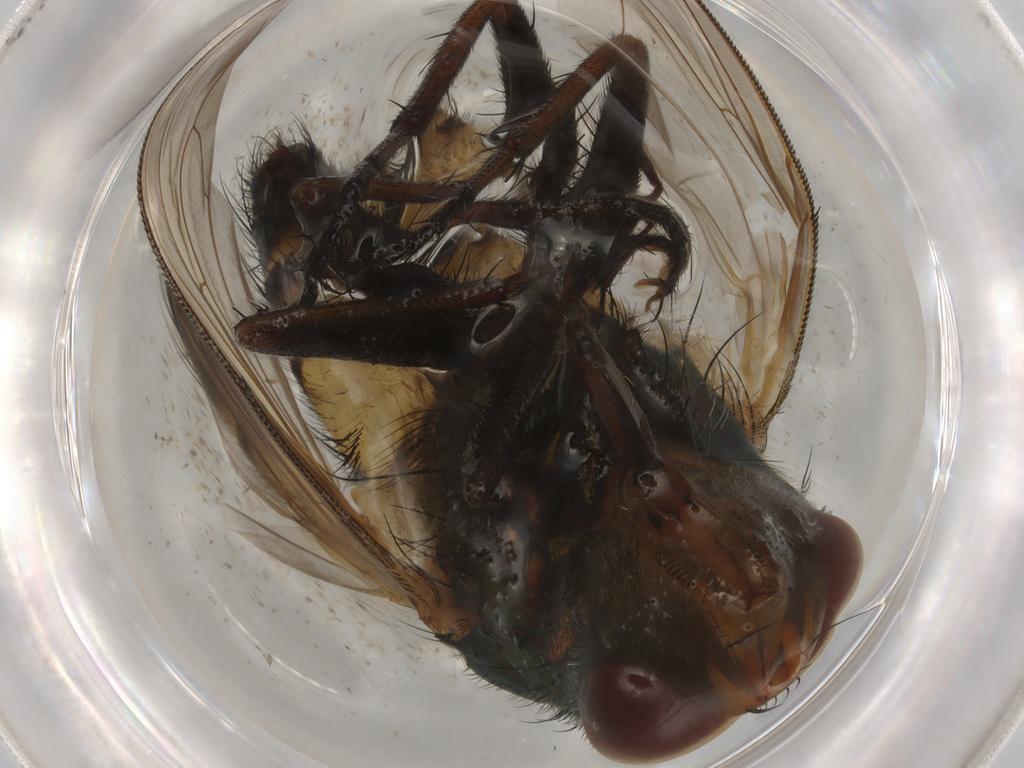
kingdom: Animalia
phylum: Arthropoda
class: Insecta
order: Diptera
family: Calliphoridae
